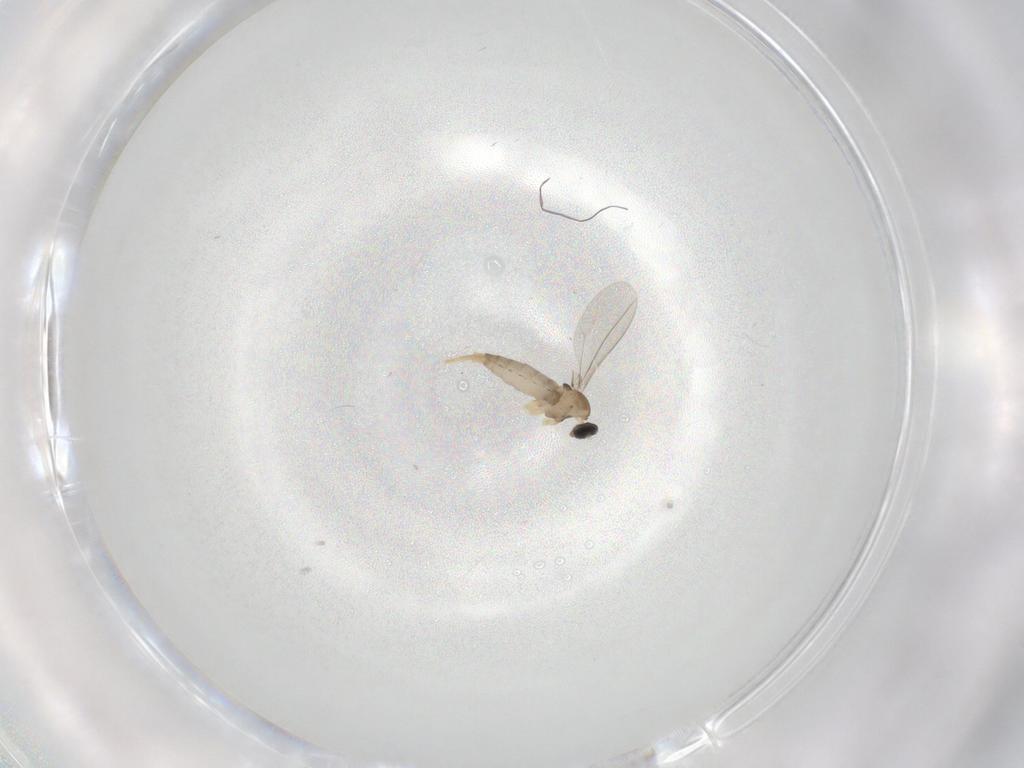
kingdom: Animalia
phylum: Arthropoda
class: Insecta
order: Diptera
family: Cecidomyiidae
